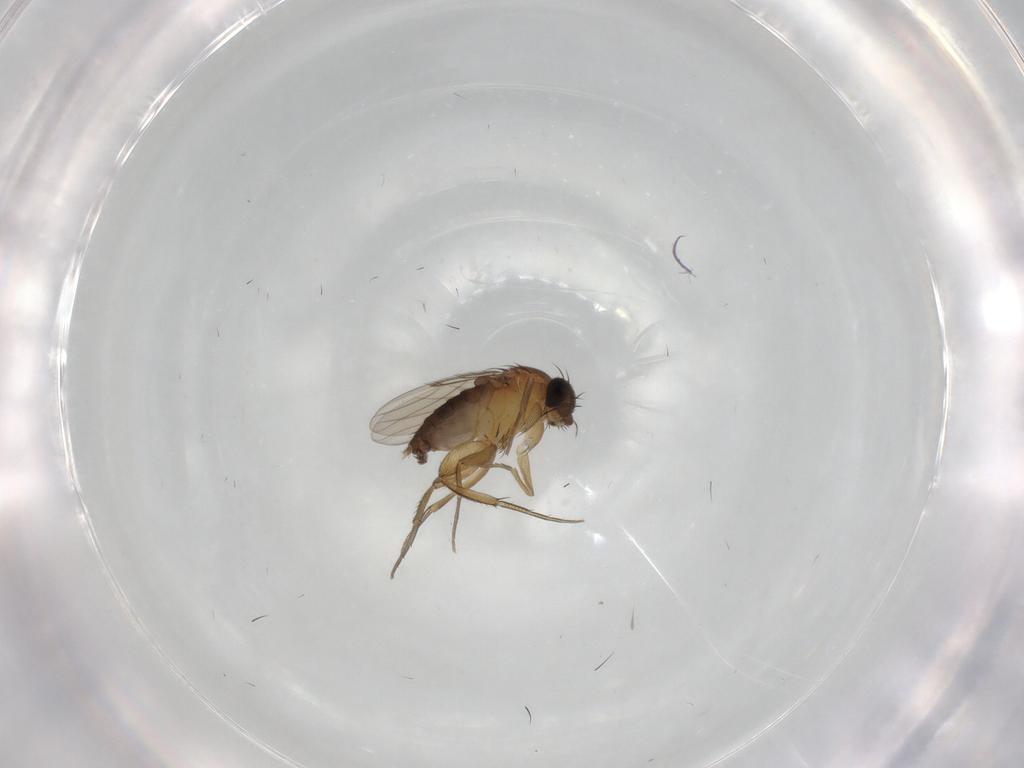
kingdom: Animalia
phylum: Arthropoda
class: Insecta
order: Diptera
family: Phoridae
